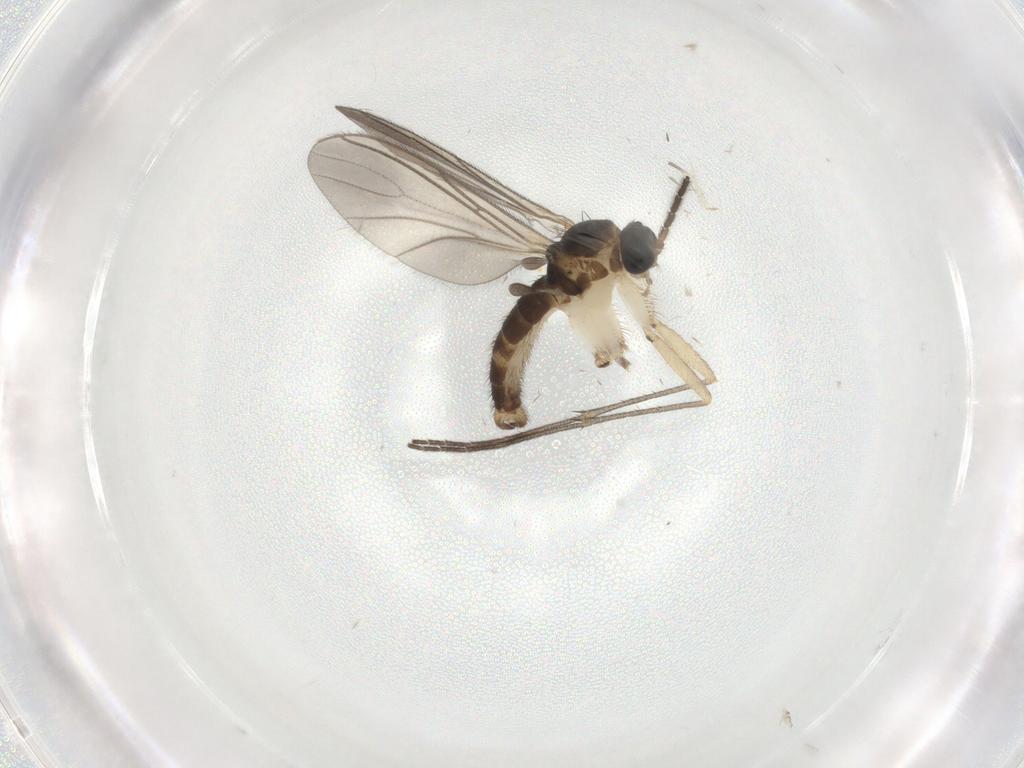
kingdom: Animalia
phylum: Arthropoda
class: Insecta
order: Diptera
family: Sciaridae
